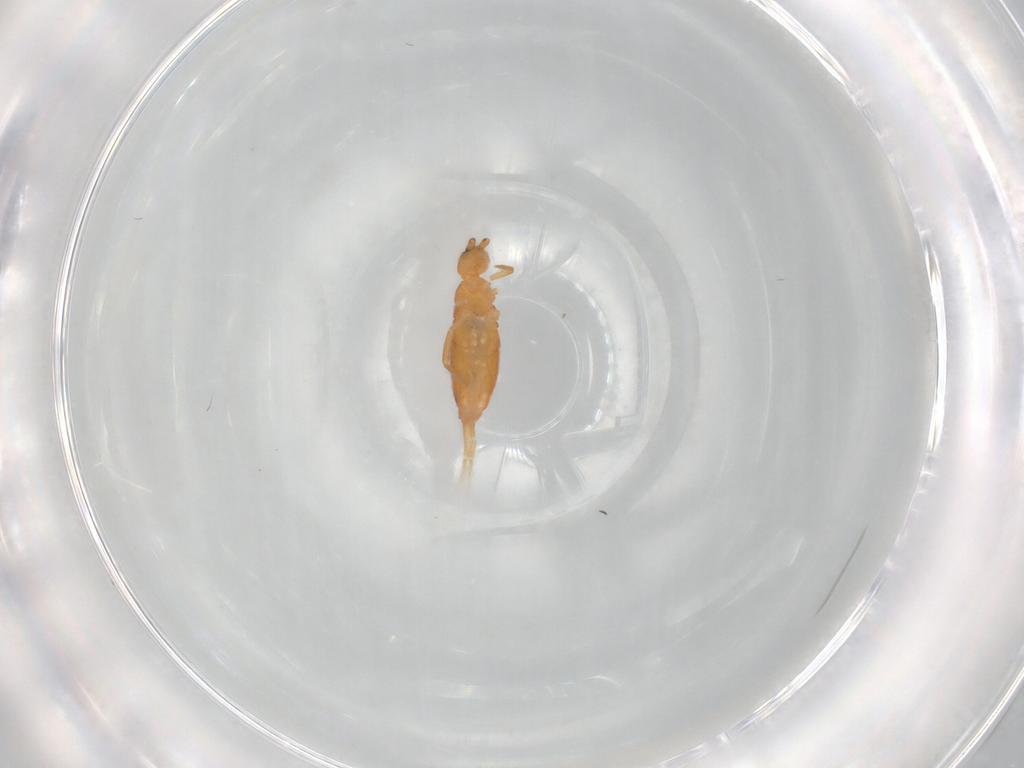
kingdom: Animalia
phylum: Arthropoda
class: Collembola
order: Entomobryomorpha
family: Entomobryidae
